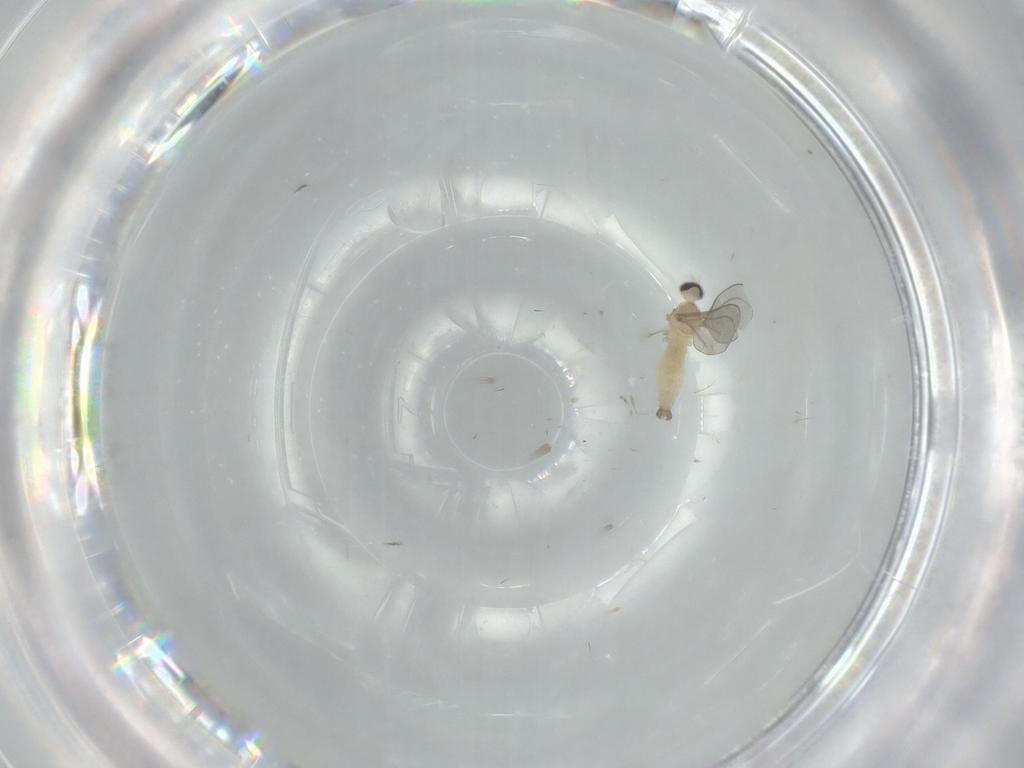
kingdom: Animalia
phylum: Arthropoda
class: Insecta
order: Diptera
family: Cecidomyiidae
